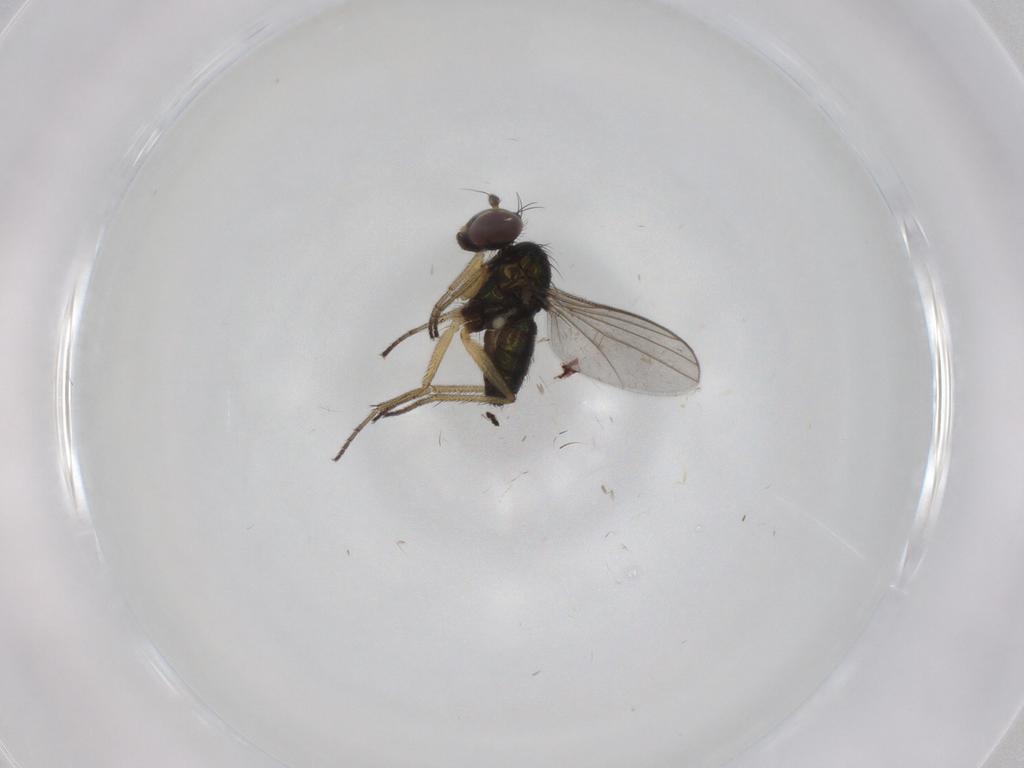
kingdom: Animalia
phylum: Arthropoda
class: Insecta
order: Diptera
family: Dolichopodidae
